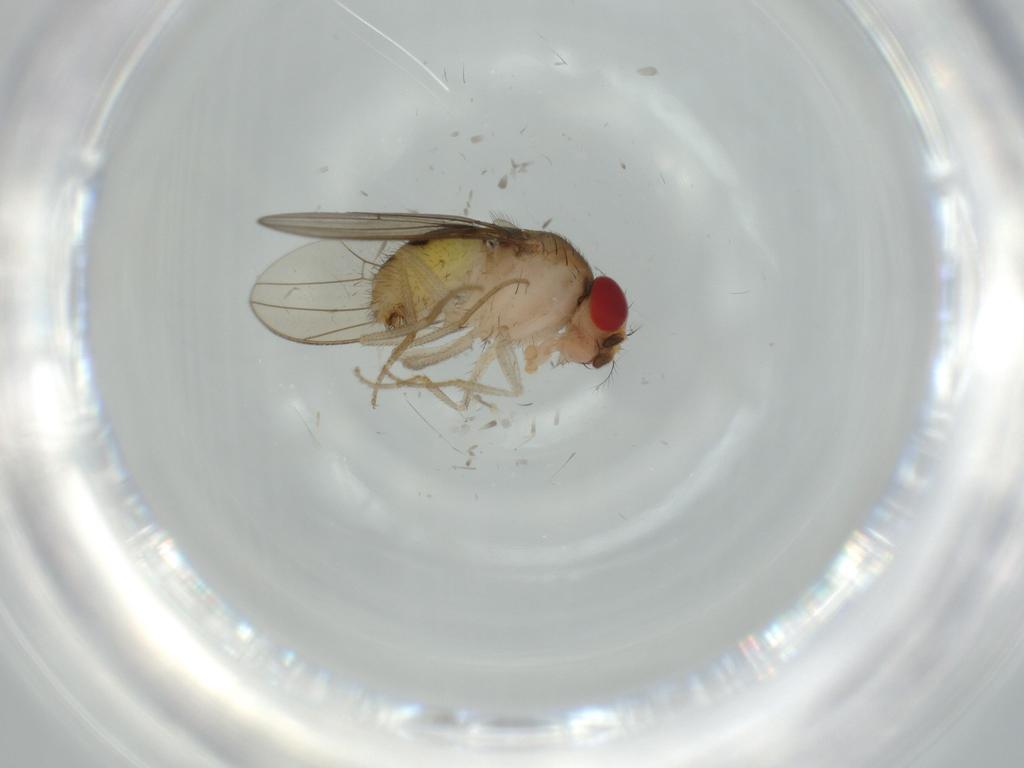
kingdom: Animalia
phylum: Arthropoda
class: Insecta
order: Diptera
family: Drosophilidae
